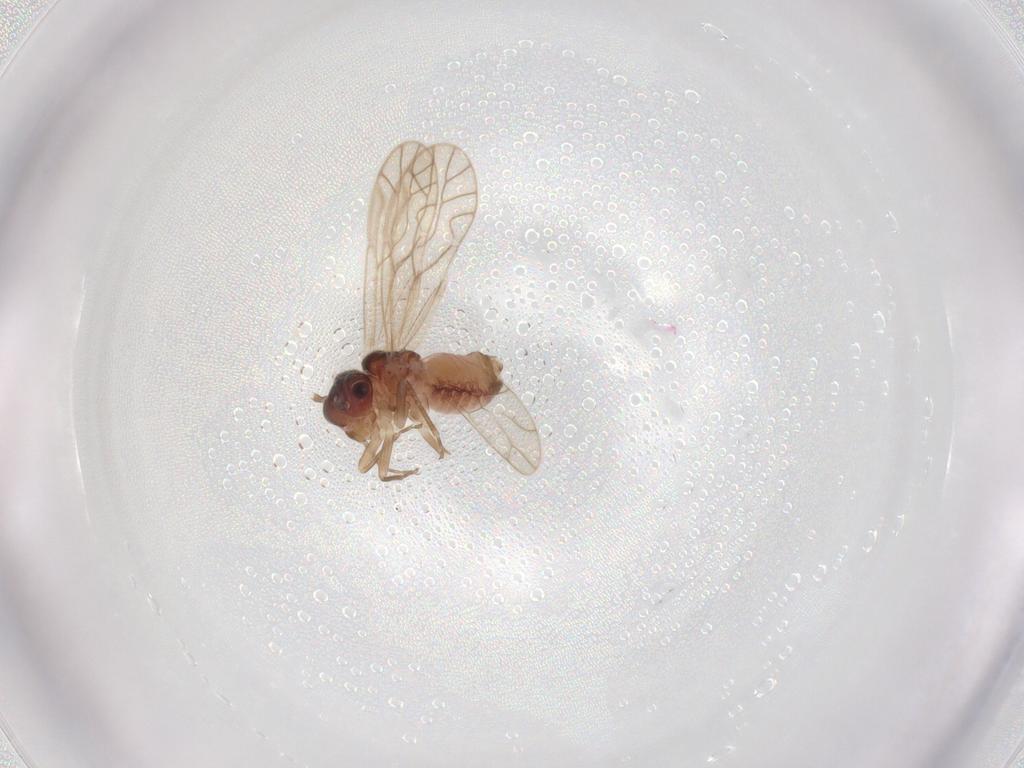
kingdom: Animalia
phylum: Arthropoda
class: Insecta
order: Psocodea
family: Amphipsocidae
